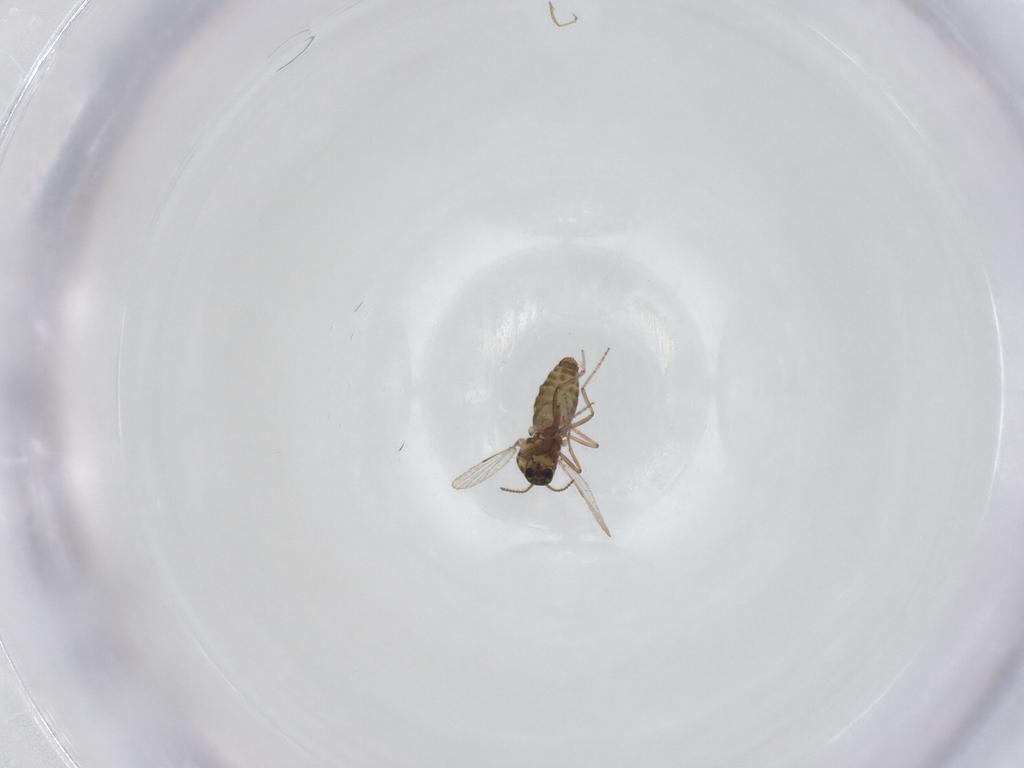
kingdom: Animalia
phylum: Arthropoda
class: Insecta
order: Diptera
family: Ceratopogonidae
